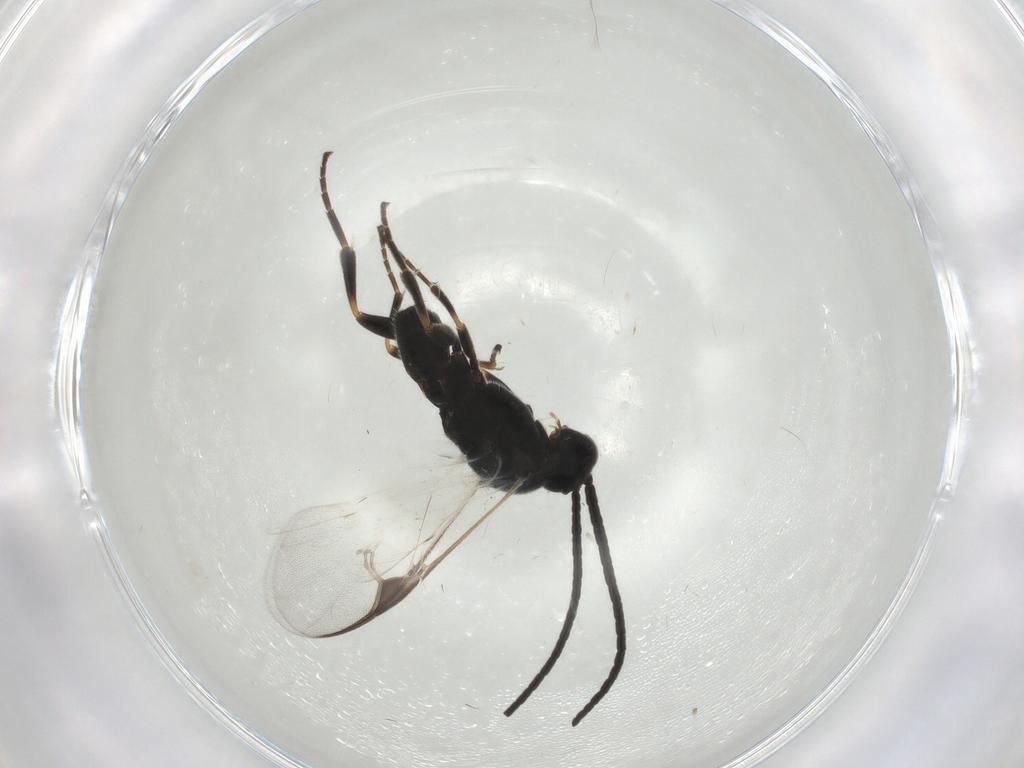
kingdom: Animalia
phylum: Arthropoda
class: Insecta
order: Hymenoptera
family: Braconidae
